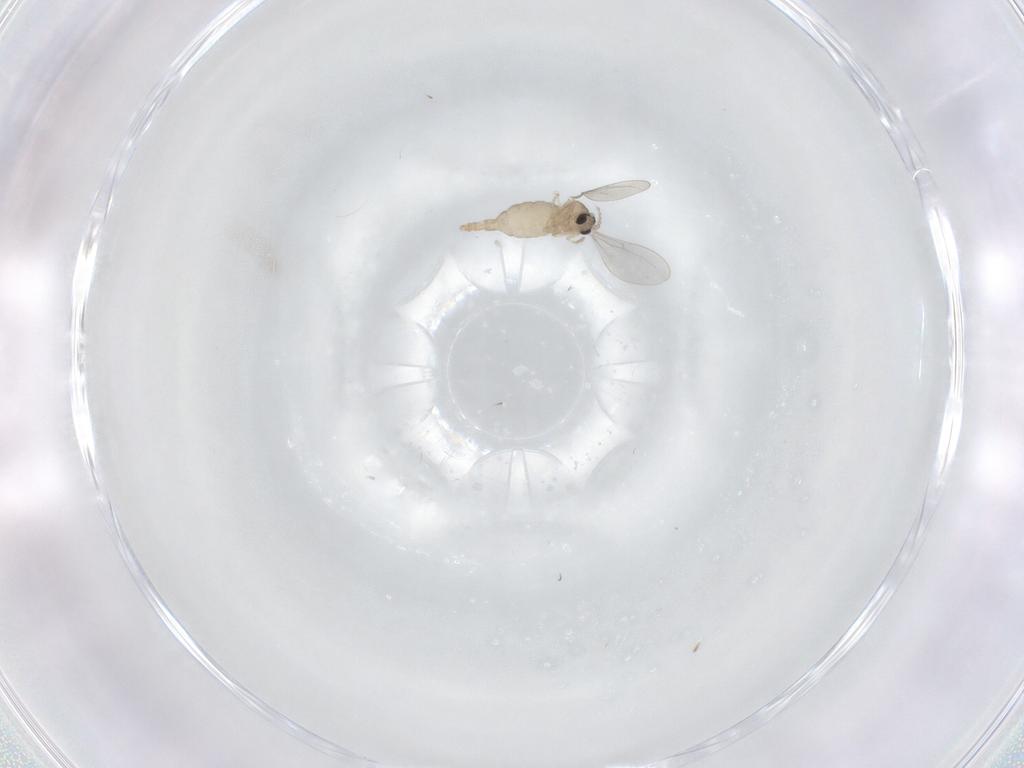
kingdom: Animalia
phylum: Arthropoda
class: Insecta
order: Diptera
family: Cecidomyiidae
